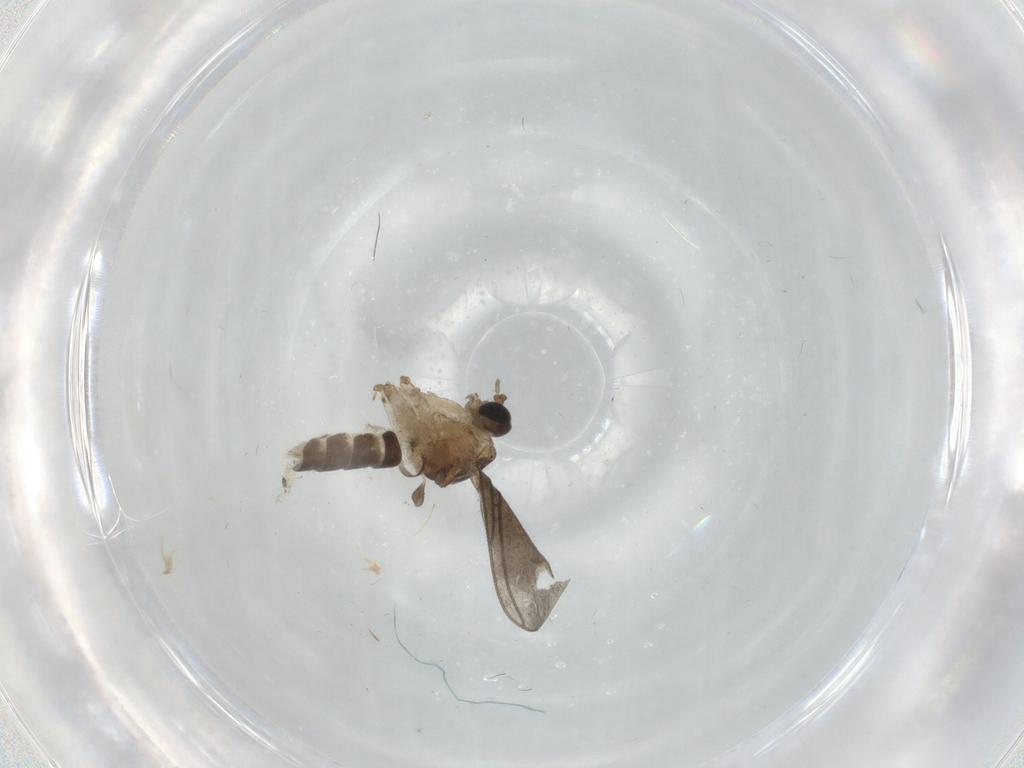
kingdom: Animalia
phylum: Arthropoda
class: Insecta
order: Diptera
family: Sciaridae
